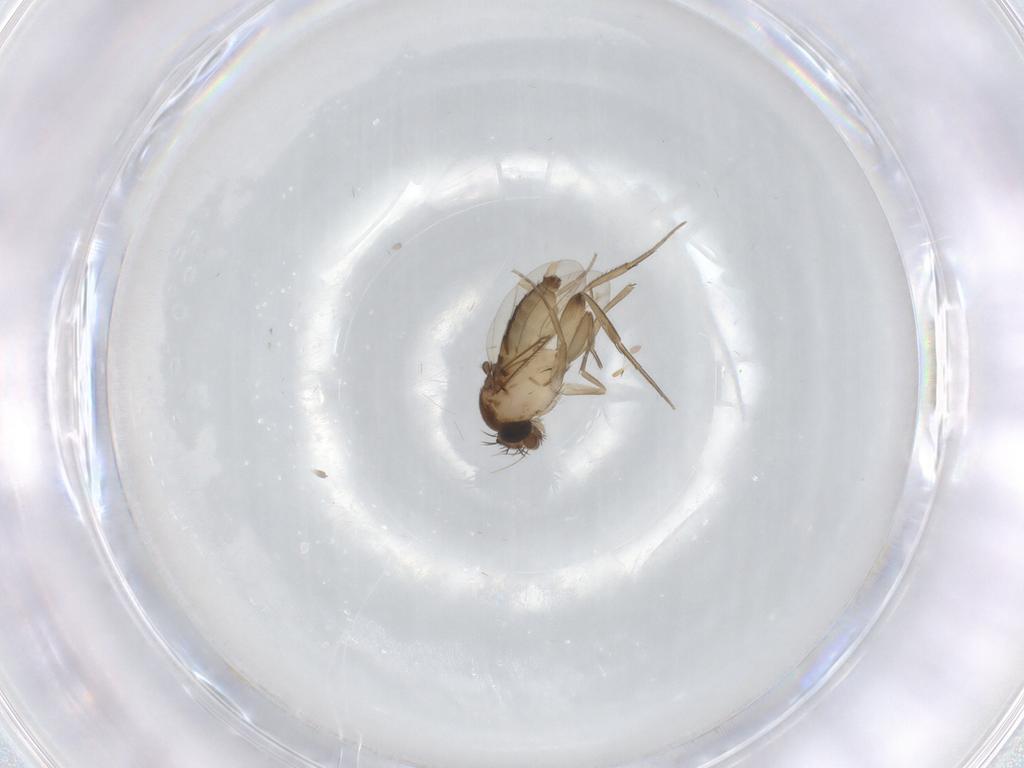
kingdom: Animalia
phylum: Arthropoda
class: Insecta
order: Diptera
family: Phoridae
